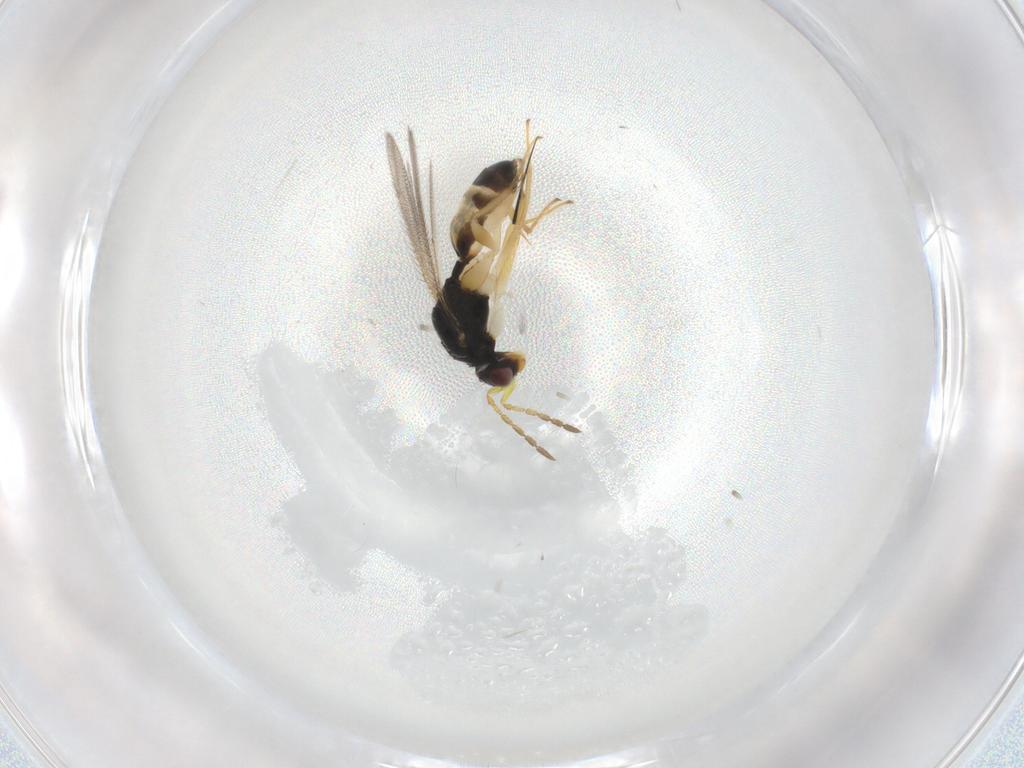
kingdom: Animalia
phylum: Arthropoda
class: Insecta
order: Hymenoptera
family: Eulophidae
